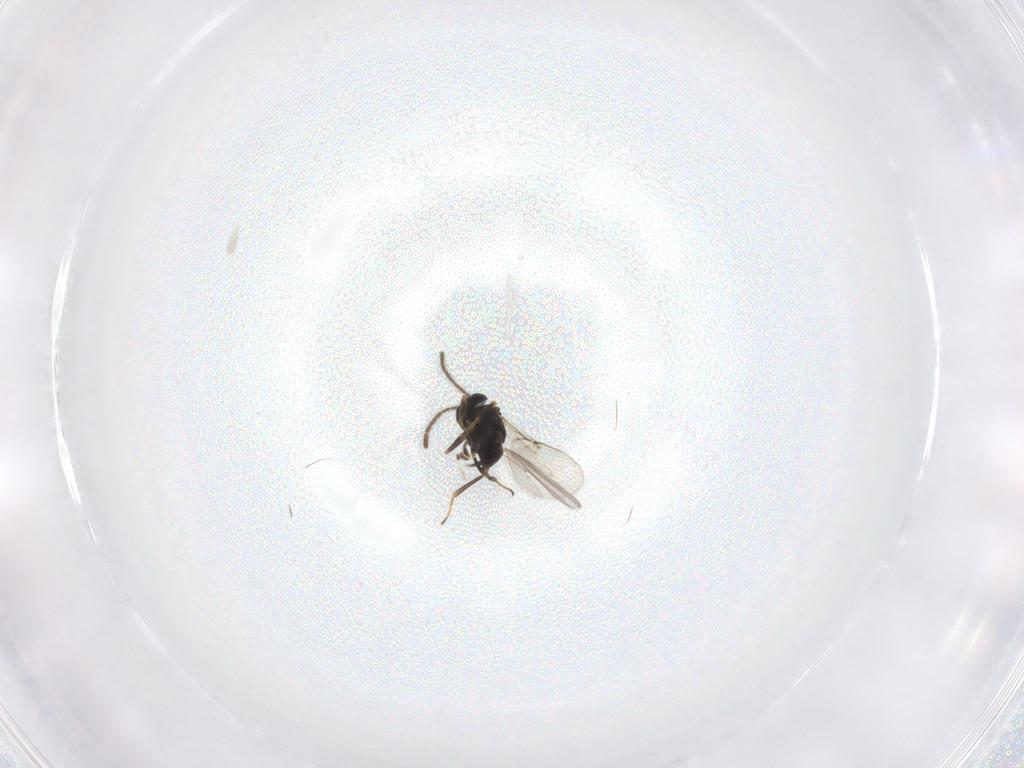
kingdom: Animalia
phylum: Arthropoda
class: Insecta
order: Hymenoptera
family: Encyrtidae
